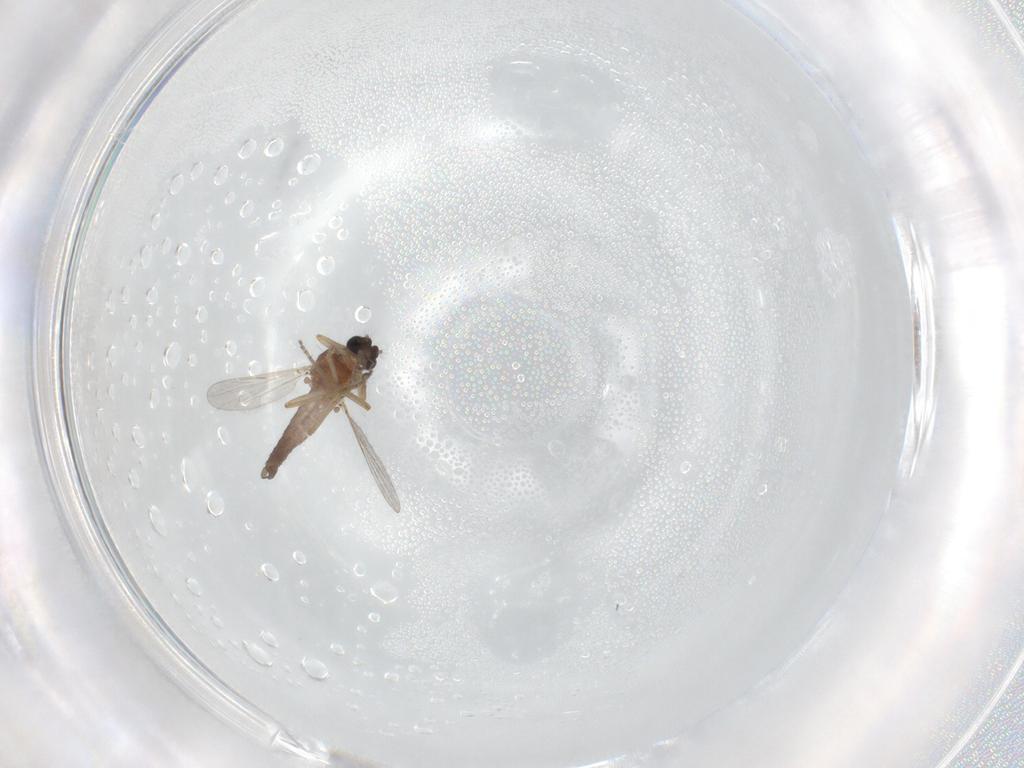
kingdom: Animalia
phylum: Arthropoda
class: Insecta
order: Diptera
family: Ceratopogonidae
